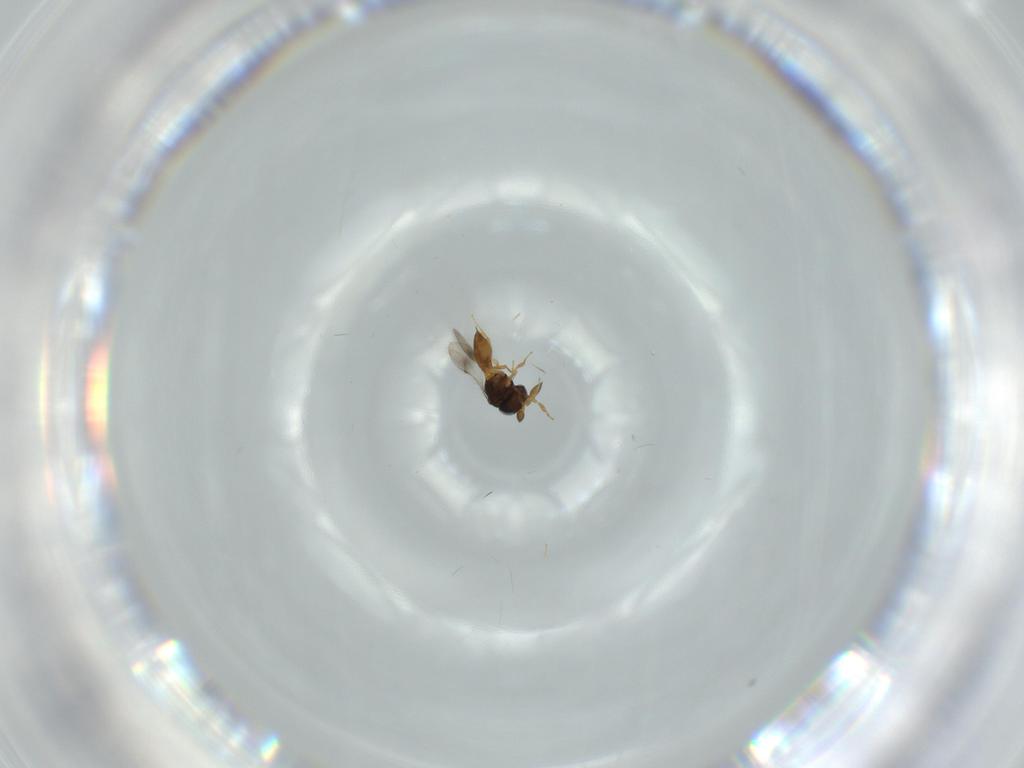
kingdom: Animalia
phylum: Arthropoda
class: Insecta
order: Hymenoptera
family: Scelionidae
